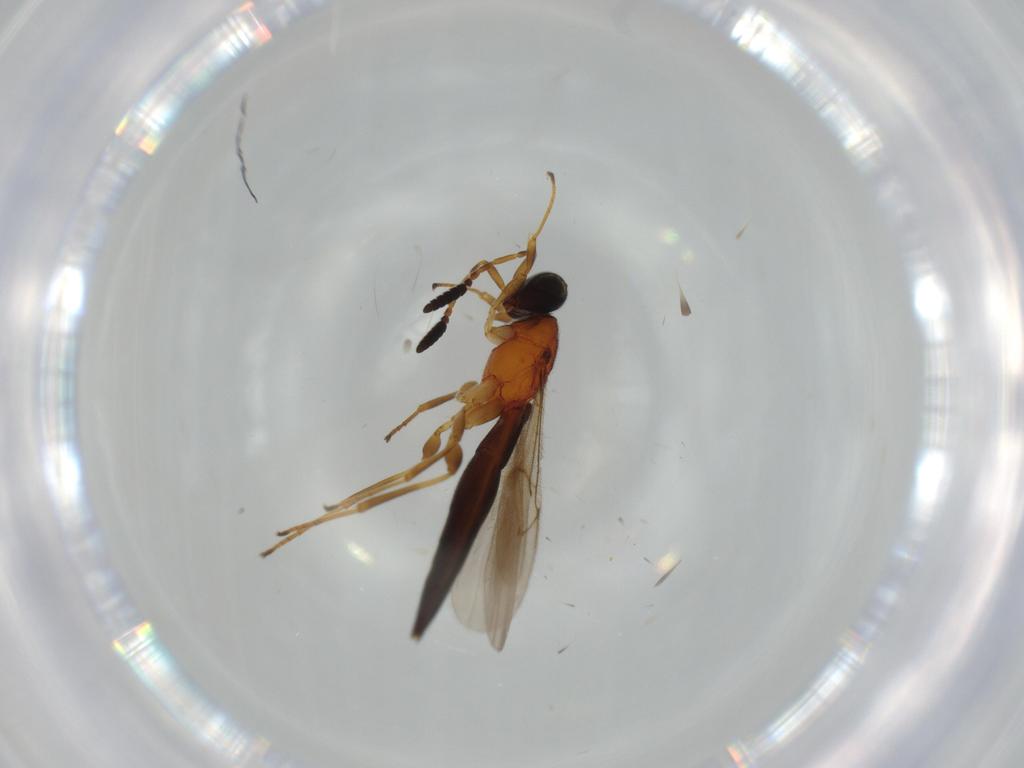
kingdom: Animalia
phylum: Arthropoda
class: Insecta
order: Hymenoptera
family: Scelionidae
